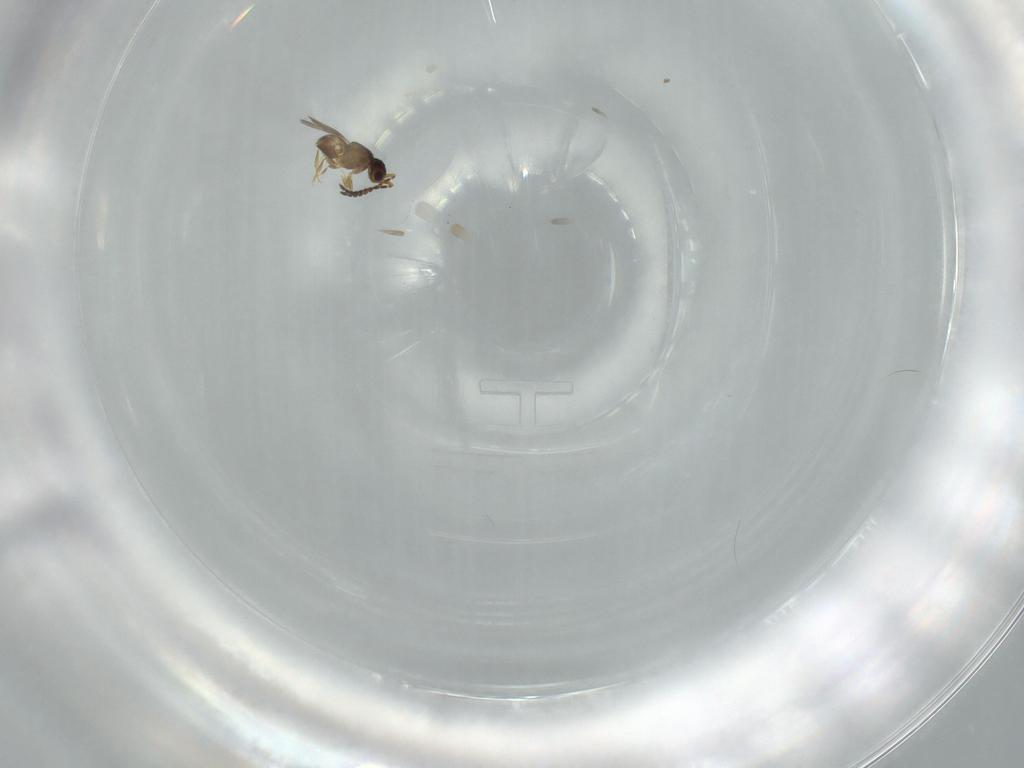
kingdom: Animalia
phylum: Arthropoda
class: Insecta
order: Hymenoptera
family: Ceraphronidae
